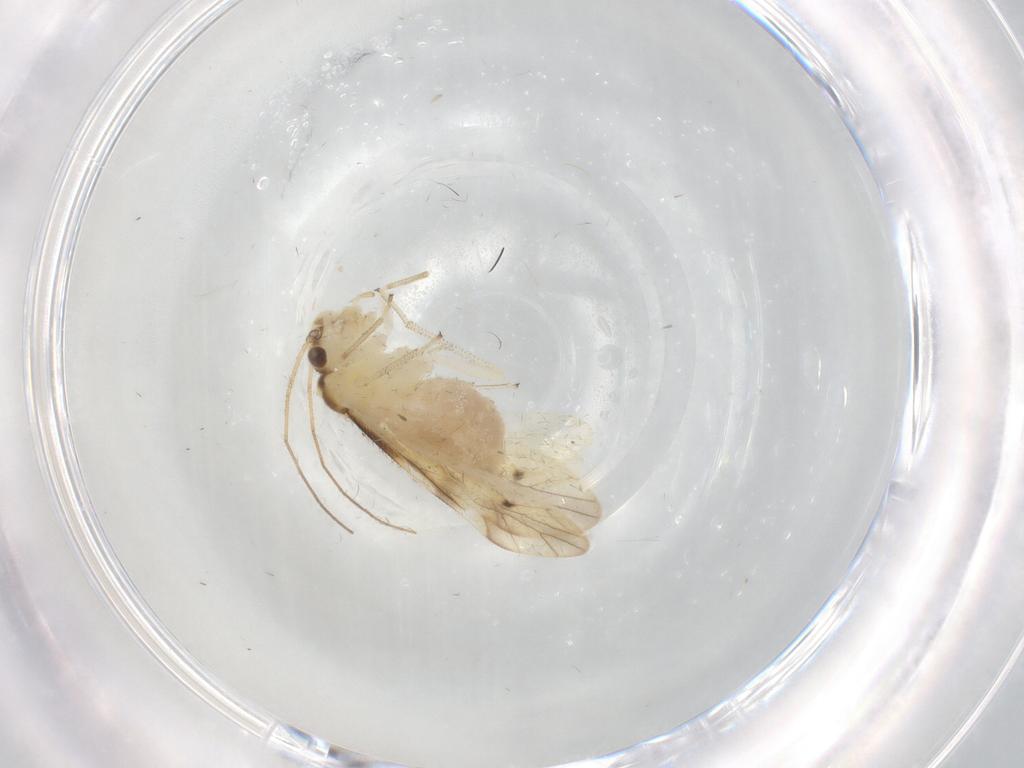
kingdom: Animalia
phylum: Arthropoda
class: Insecta
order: Psocodea
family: Caeciliusidae
